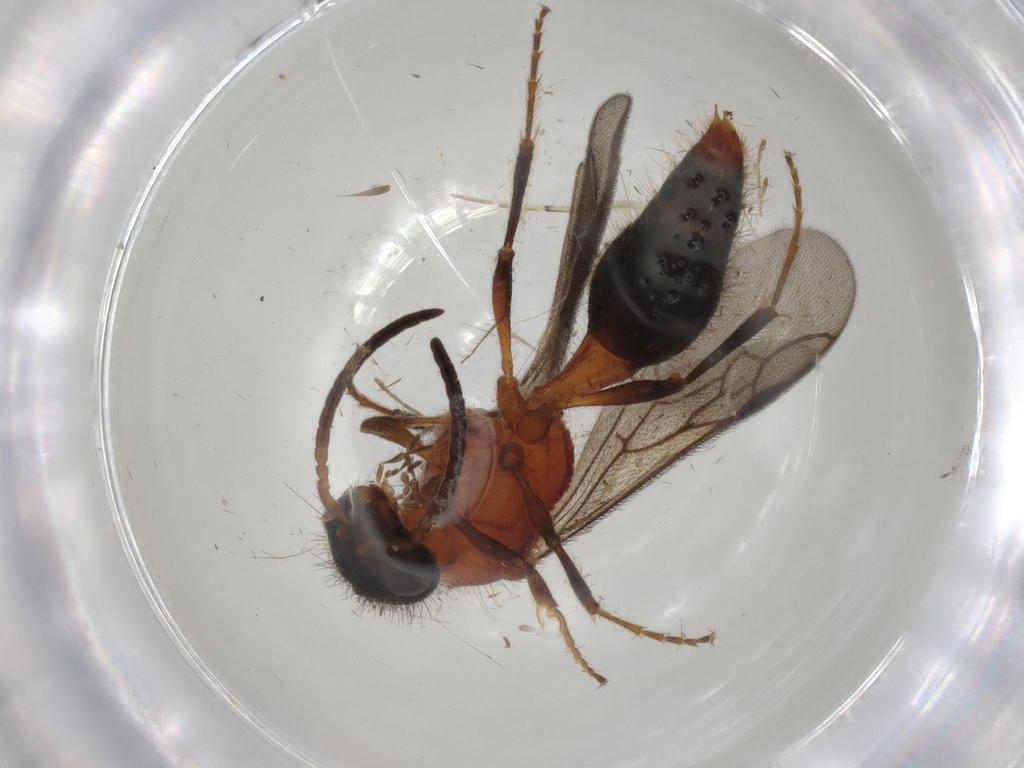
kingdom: Animalia
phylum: Arthropoda
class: Insecta
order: Hymenoptera
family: Mutillidae
